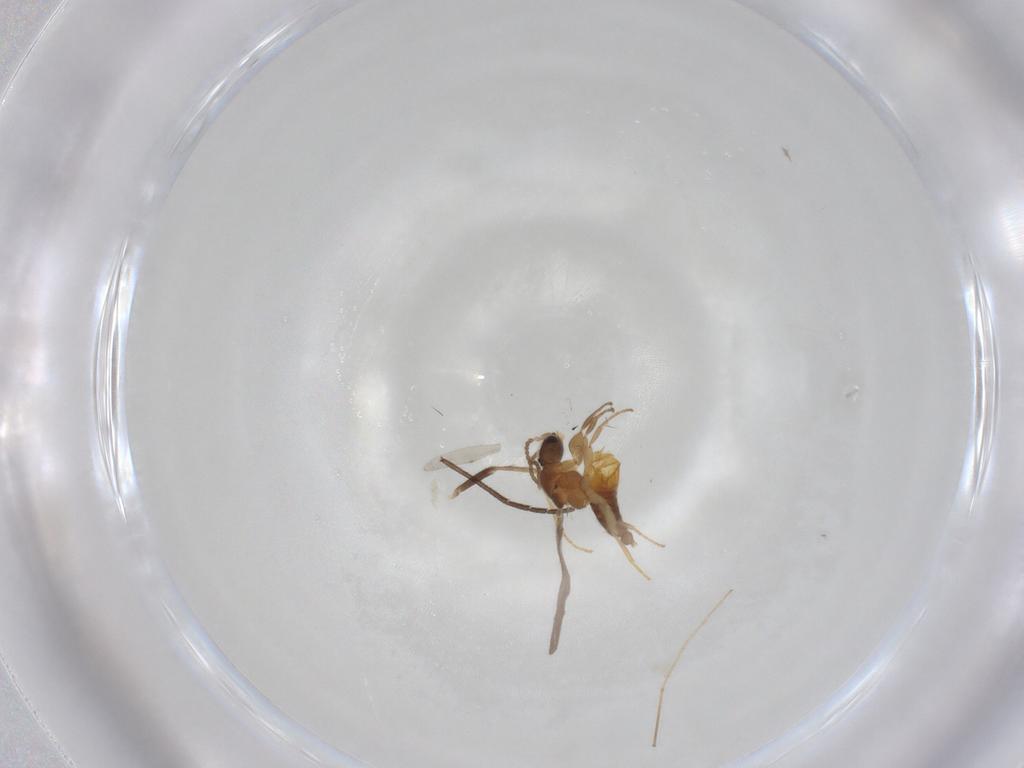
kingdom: Animalia
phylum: Arthropoda
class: Insecta
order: Hymenoptera
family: Formicidae
